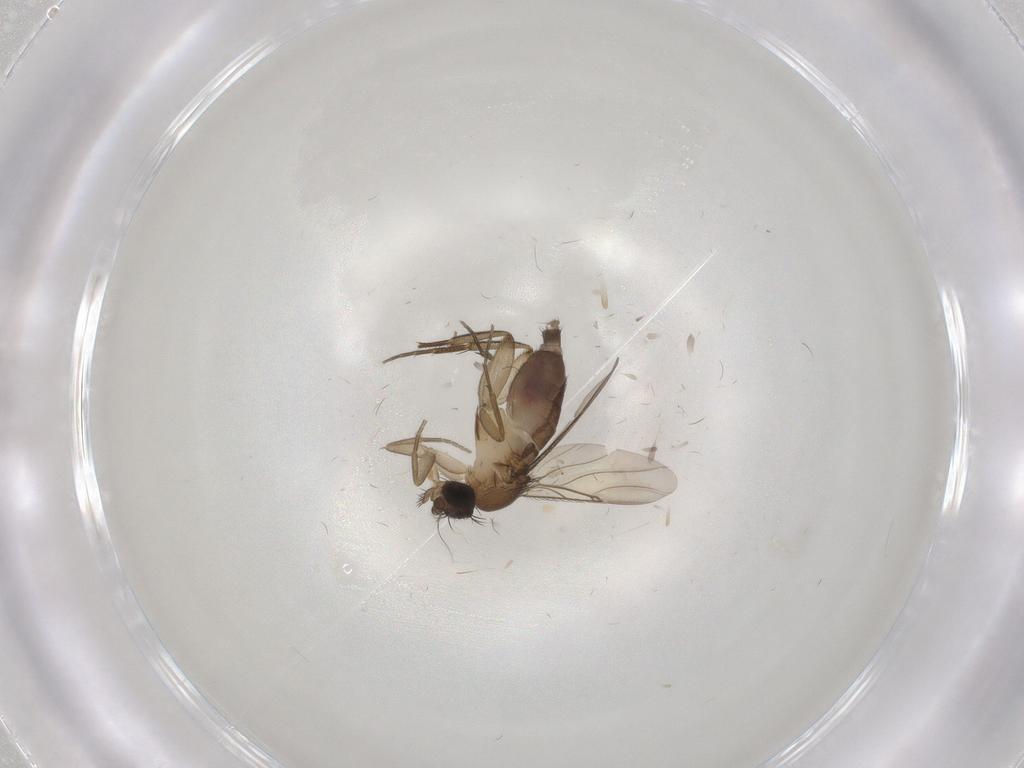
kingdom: Animalia
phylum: Arthropoda
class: Insecta
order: Diptera
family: Phoridae
